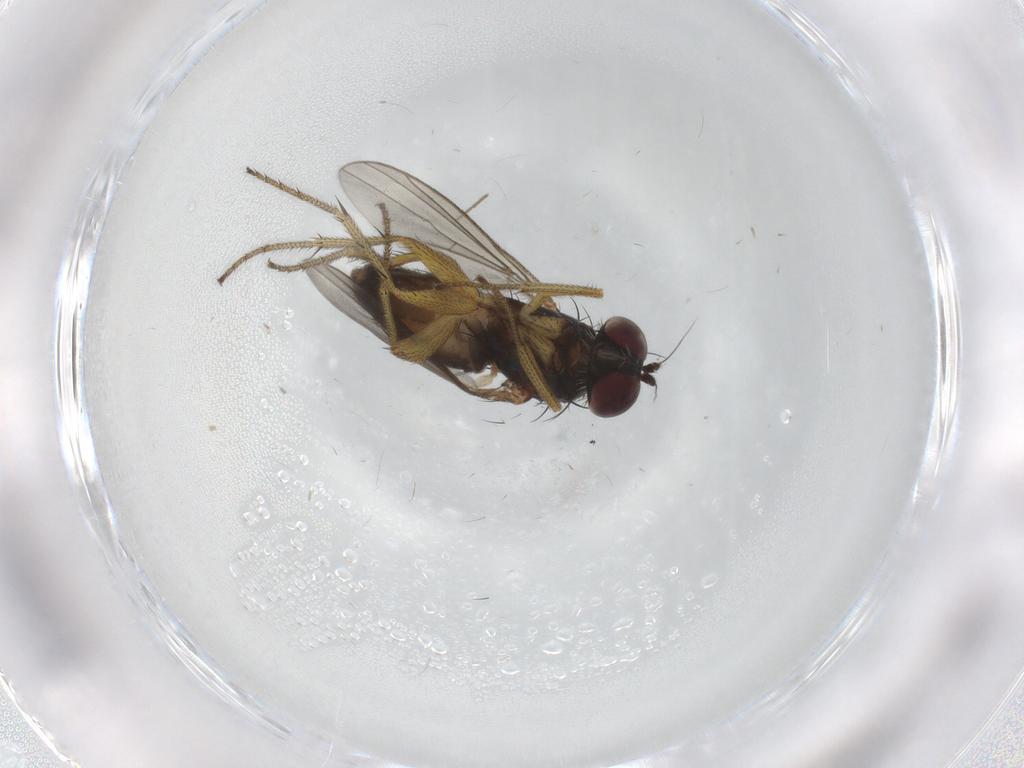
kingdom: Animalia
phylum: Arthropoda
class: Insecta
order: Diptera
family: Dolichopodidae
